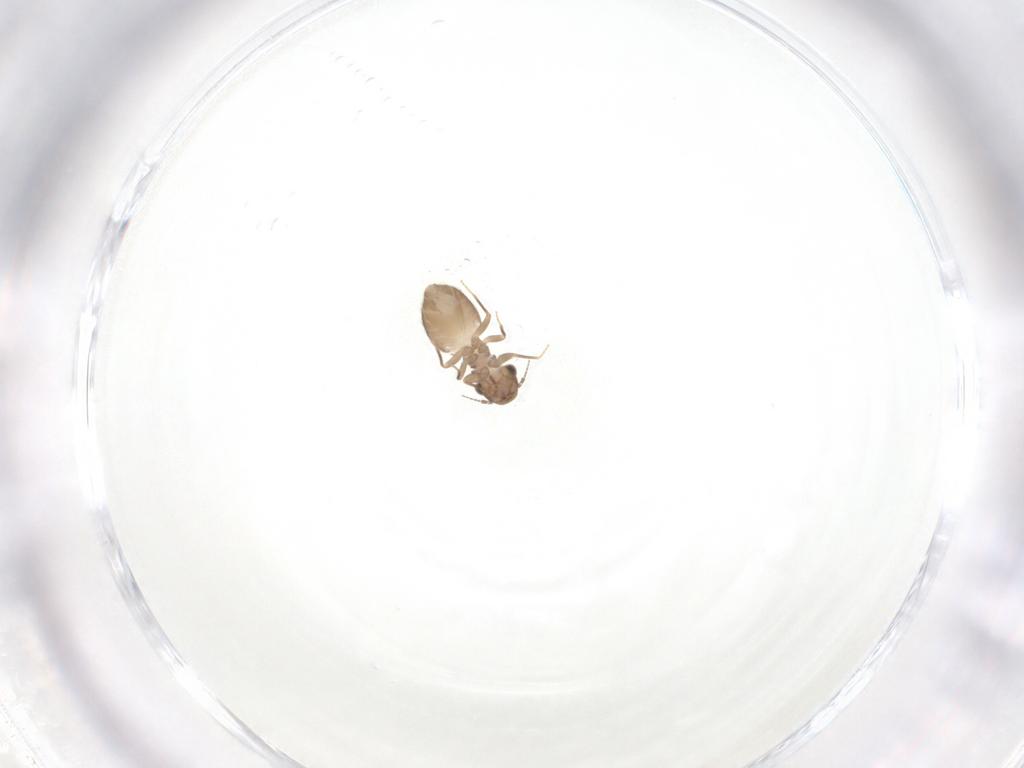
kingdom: Animalia
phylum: Arthropoda
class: Insecta
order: Psocodea
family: Trogiidae
